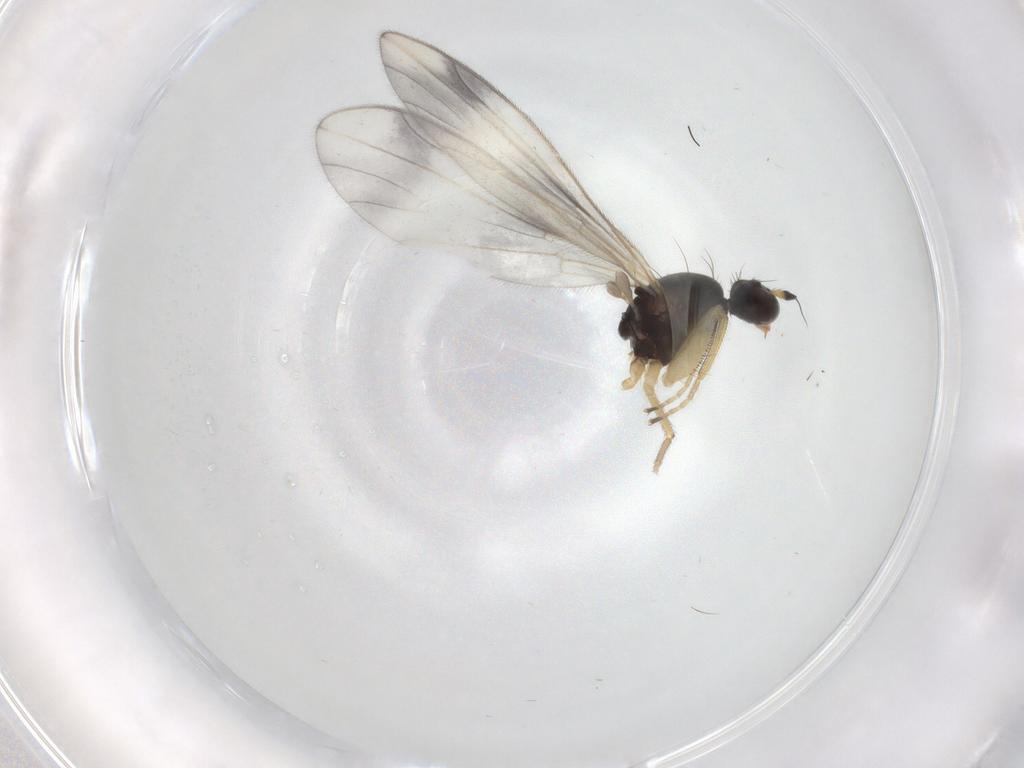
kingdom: Animalia
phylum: Arthropoda
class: Insecta
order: Diptera
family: Empididae
